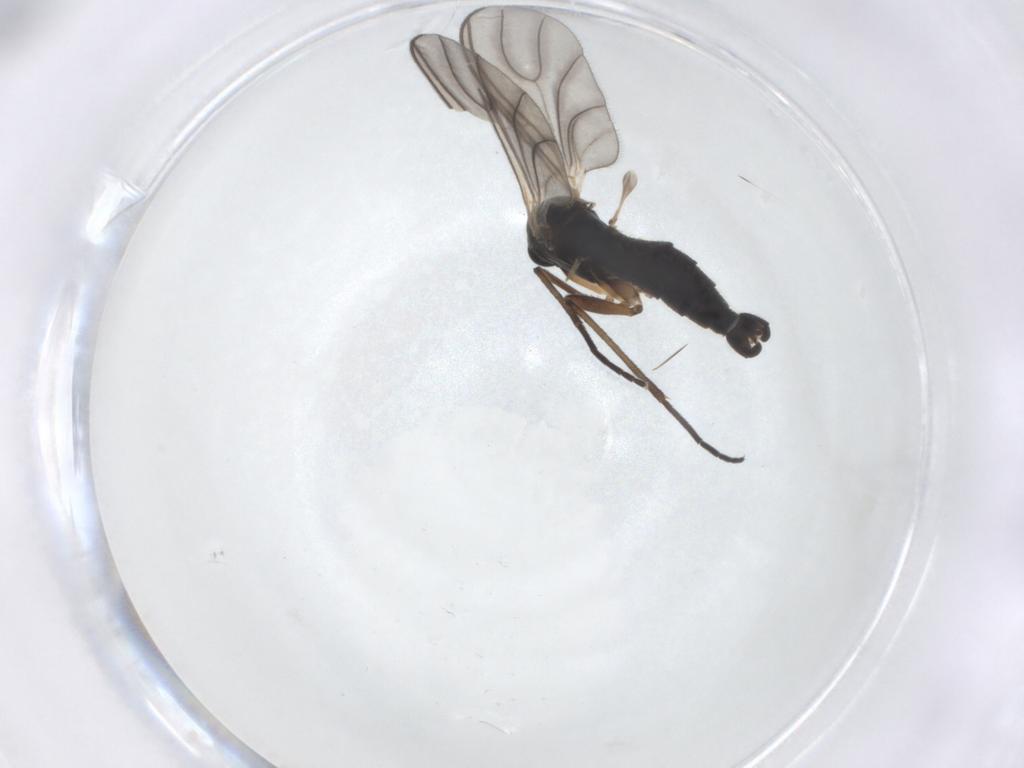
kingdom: Animalia
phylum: Arthropoda
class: Insecta
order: Diptera
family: Sciaridae
